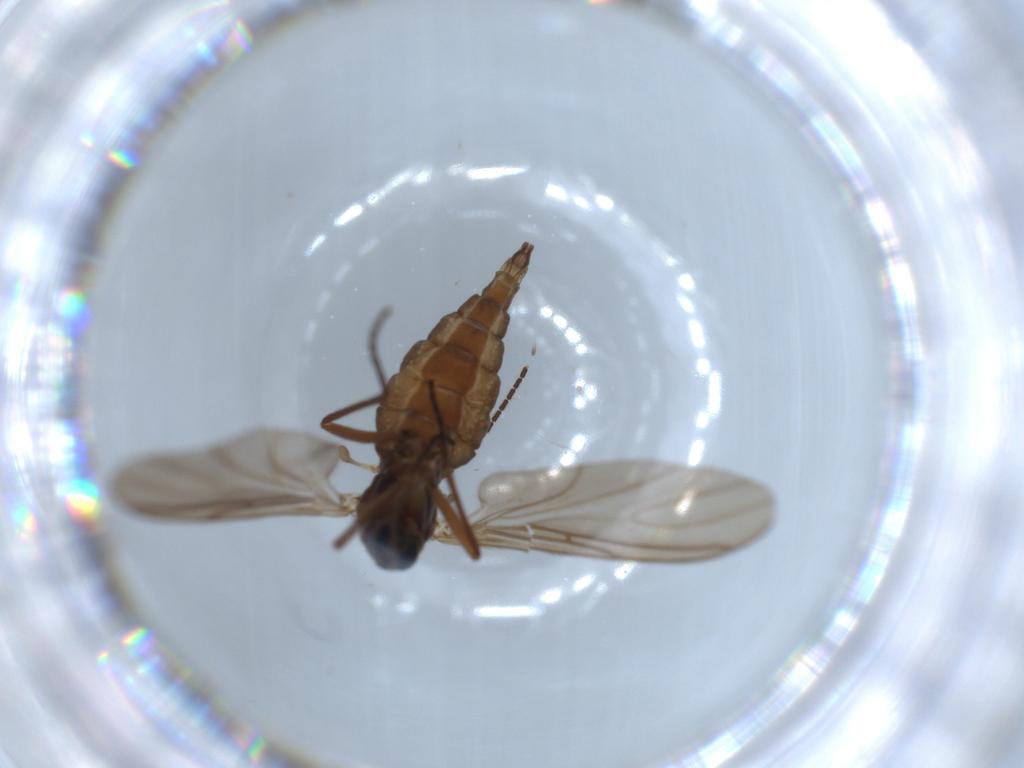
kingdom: Animalia
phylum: Arthropoda
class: Insecta
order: Diptera
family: Sciaridae
